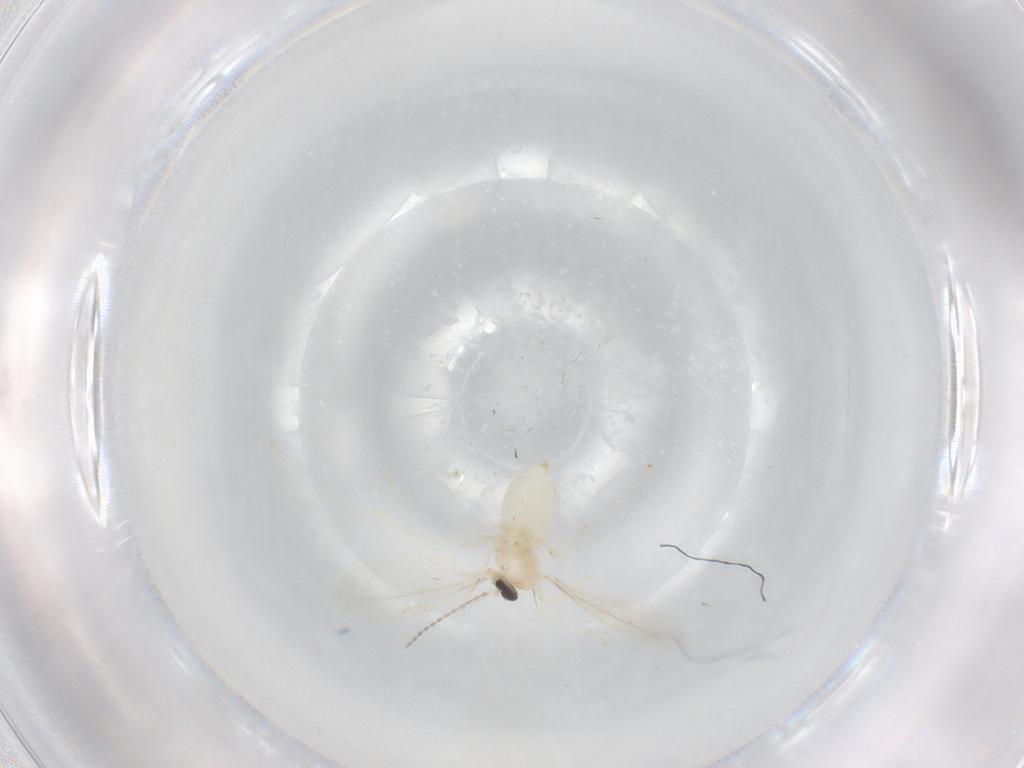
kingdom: Animalia
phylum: Arthropoda
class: Insecta
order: Diptera
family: Cecidomyiidae
